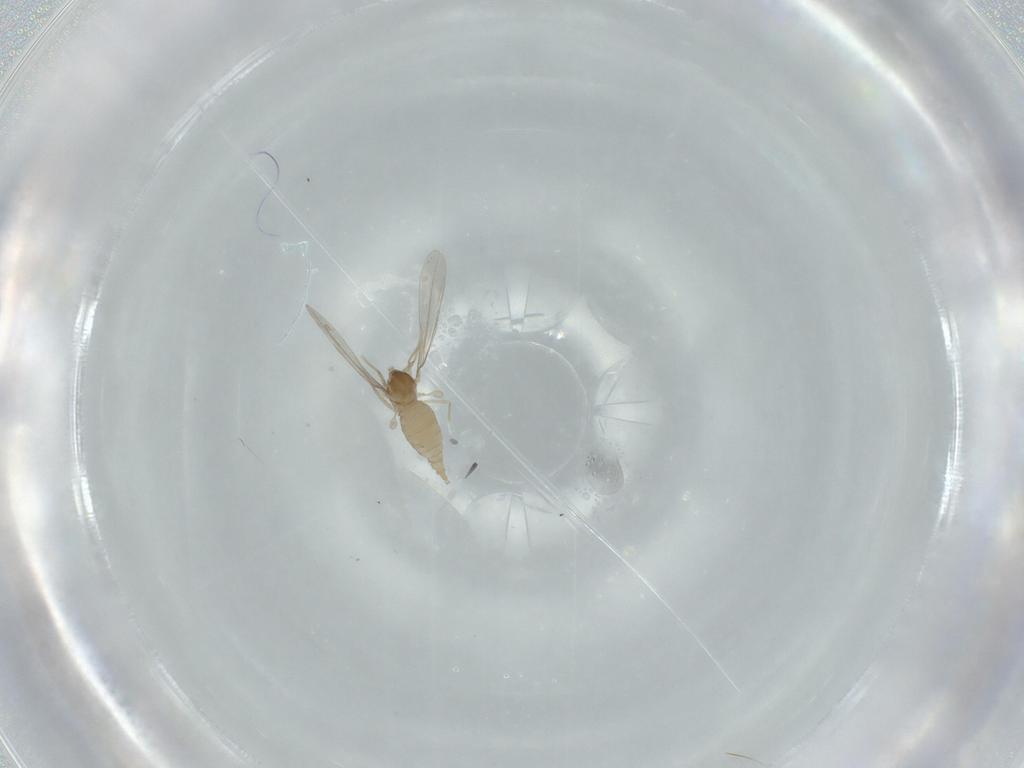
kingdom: Animalia
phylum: Arthropoda
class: Insecta
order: Diptera
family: Cecidomyiidae
